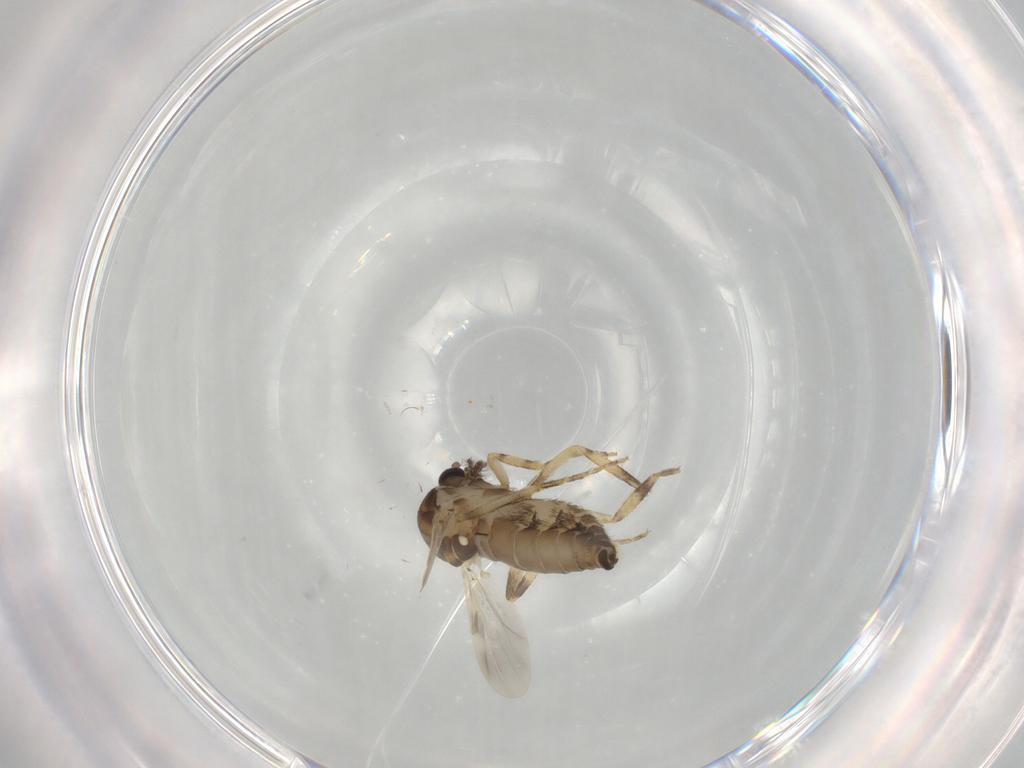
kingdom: Animalia
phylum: Arthropoda
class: Insecta
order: Diptera
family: Ceratopogonidae
